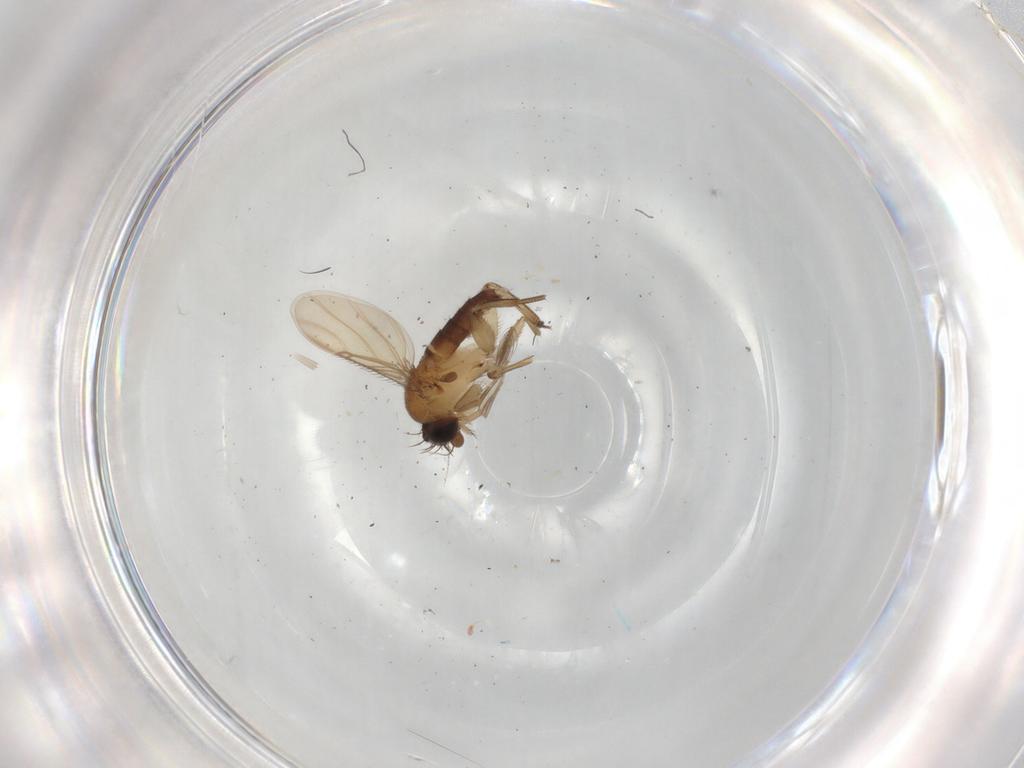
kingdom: Animalia
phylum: Arthropoda
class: Insecta
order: Diptera
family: Phoridae
